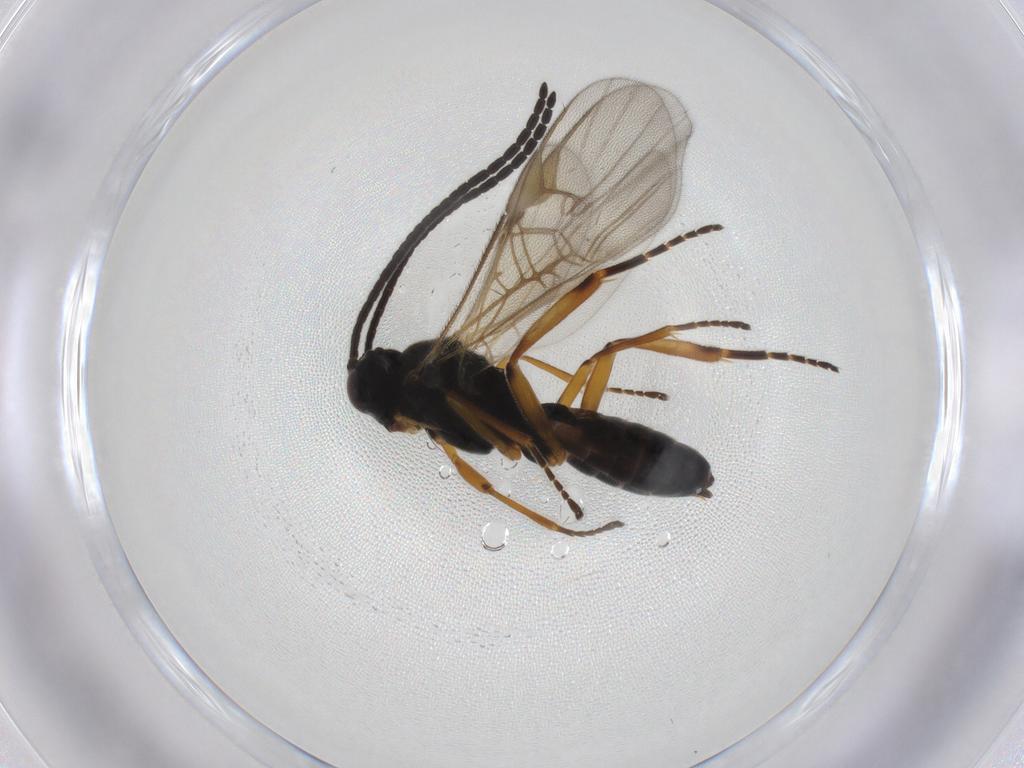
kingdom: Animalia
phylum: Arthropoda
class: Insecta
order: Hymenoptera
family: Braconidae
